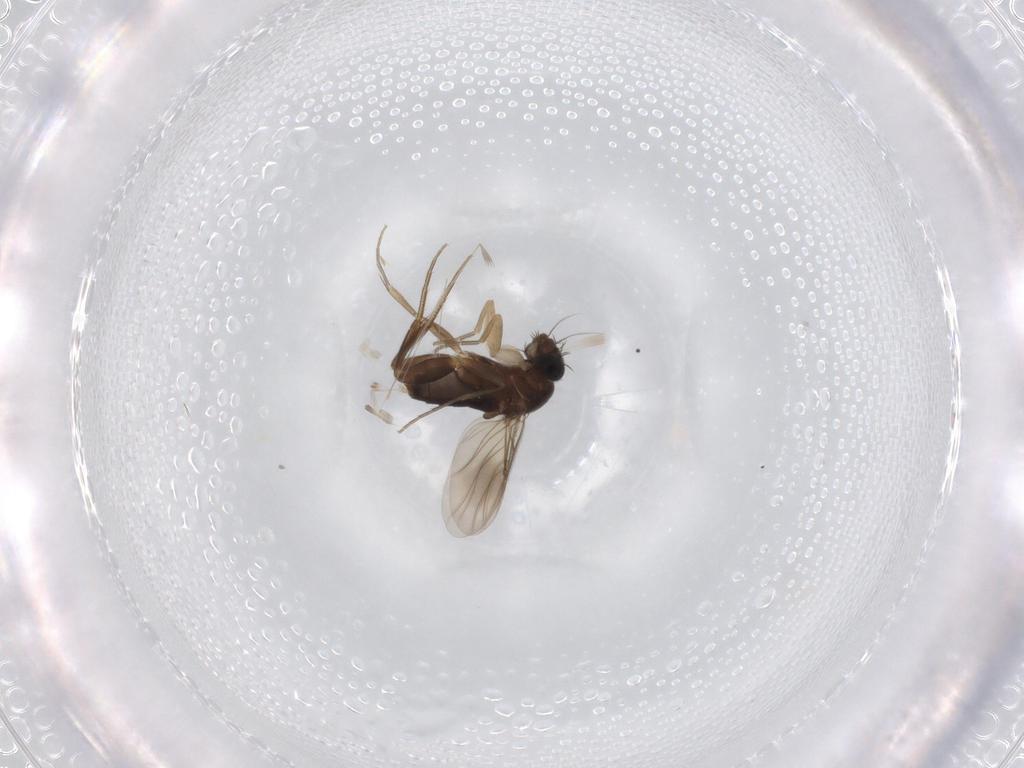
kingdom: Animalia
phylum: Arthropoda
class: Insecta
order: Diptera
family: Phoridae
